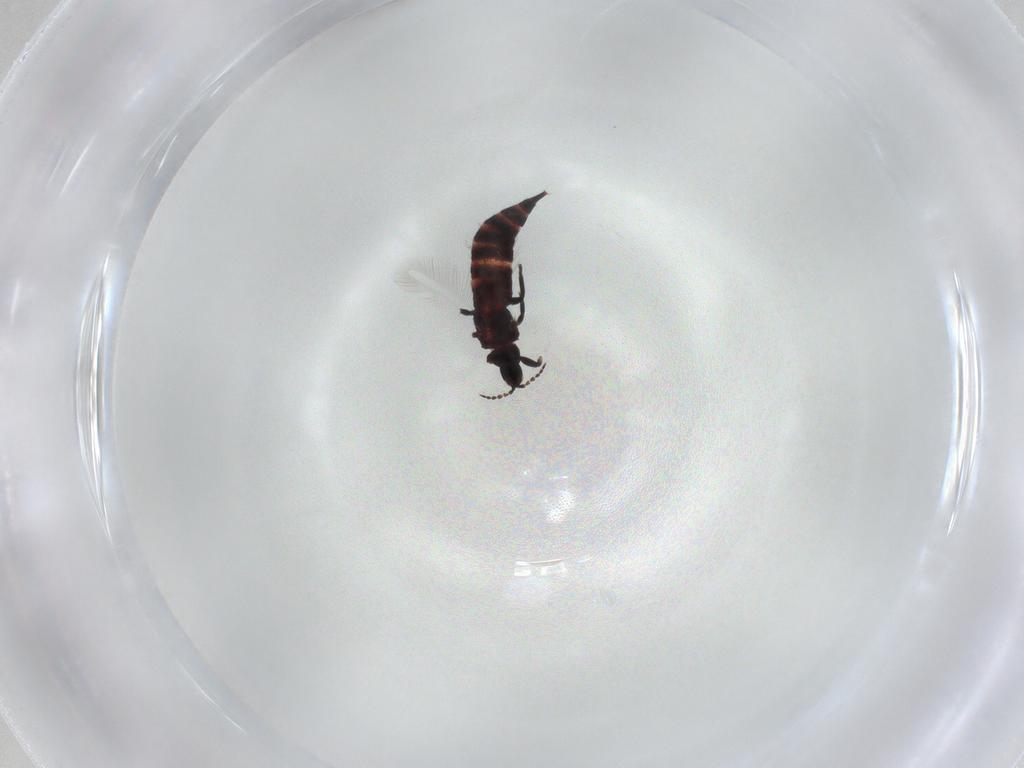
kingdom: Animalia
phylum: Arthropoda
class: Insecta
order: Thysanoptera
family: Phlaeothripidae
